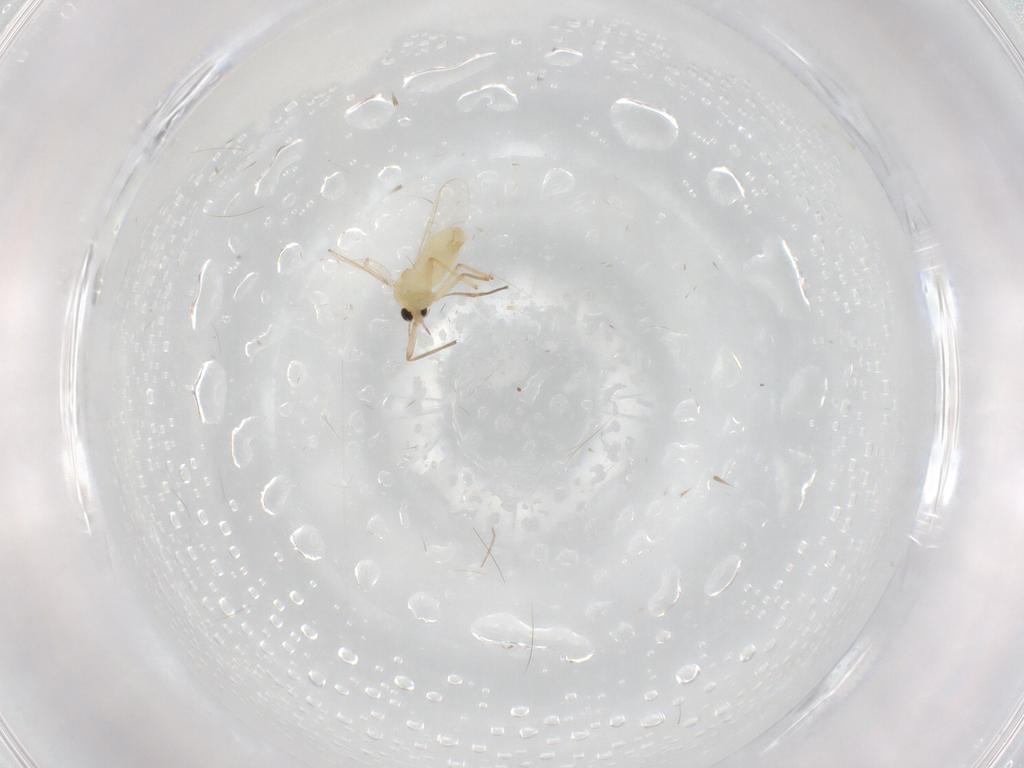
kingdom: Animalia
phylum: Arthropoda
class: Insecta
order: Diptera
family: Chironomidae
